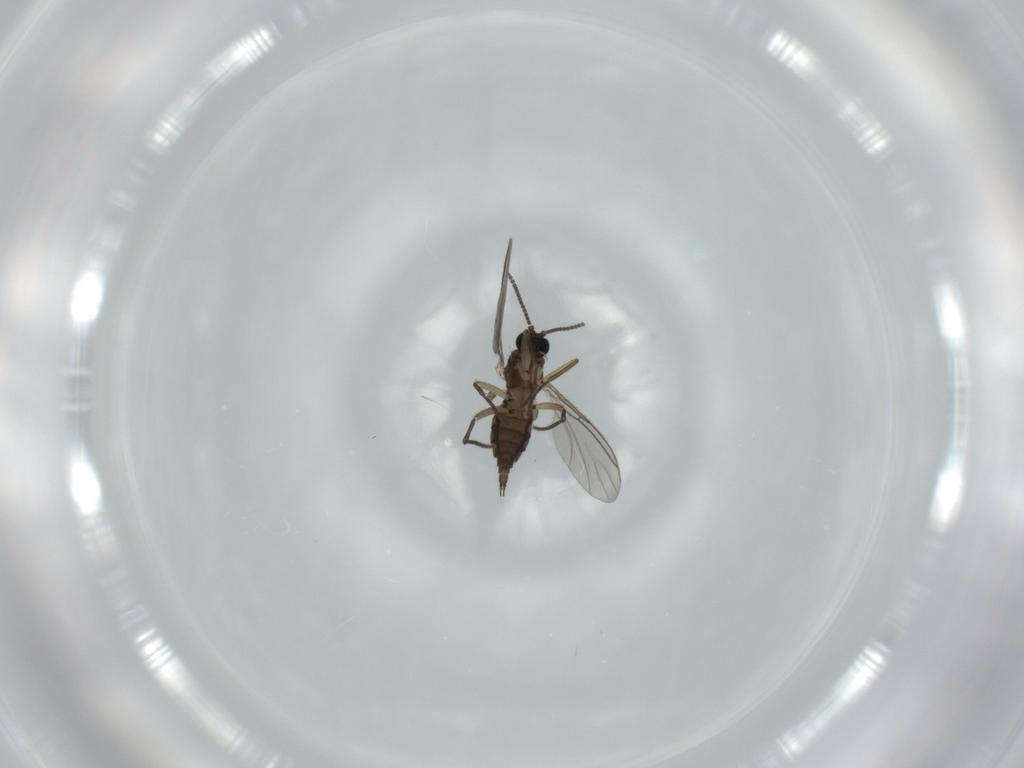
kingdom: Animalia
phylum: Arthropoda
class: Insecta
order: Diptera
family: Sciaridae
